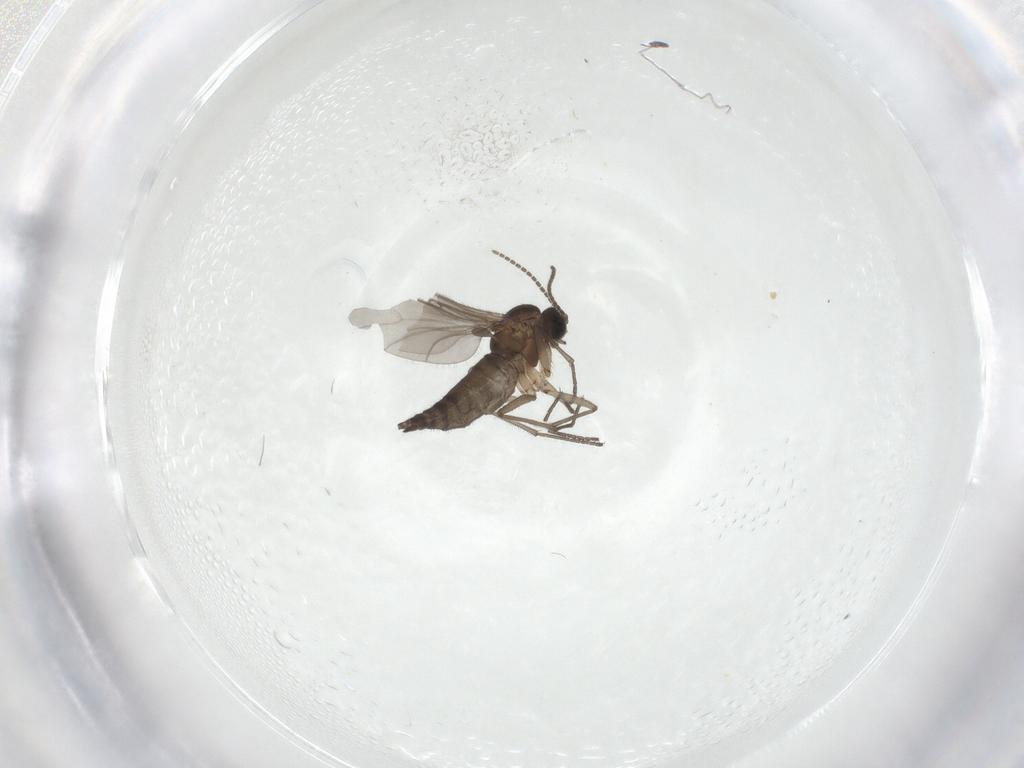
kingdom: Animalia
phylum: Arthropoda
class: Insecta
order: Diptera
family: Sciaridae
